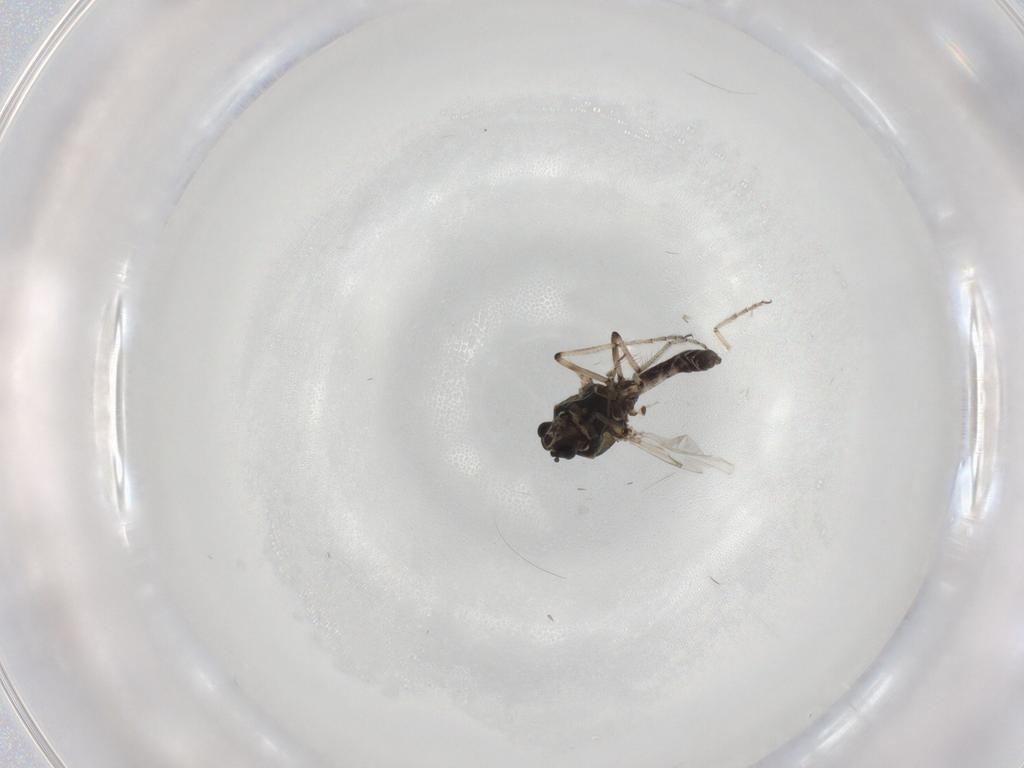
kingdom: Animalia
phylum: Arthropoda
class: Insecta
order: Diptera
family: Ceratopogonidae
